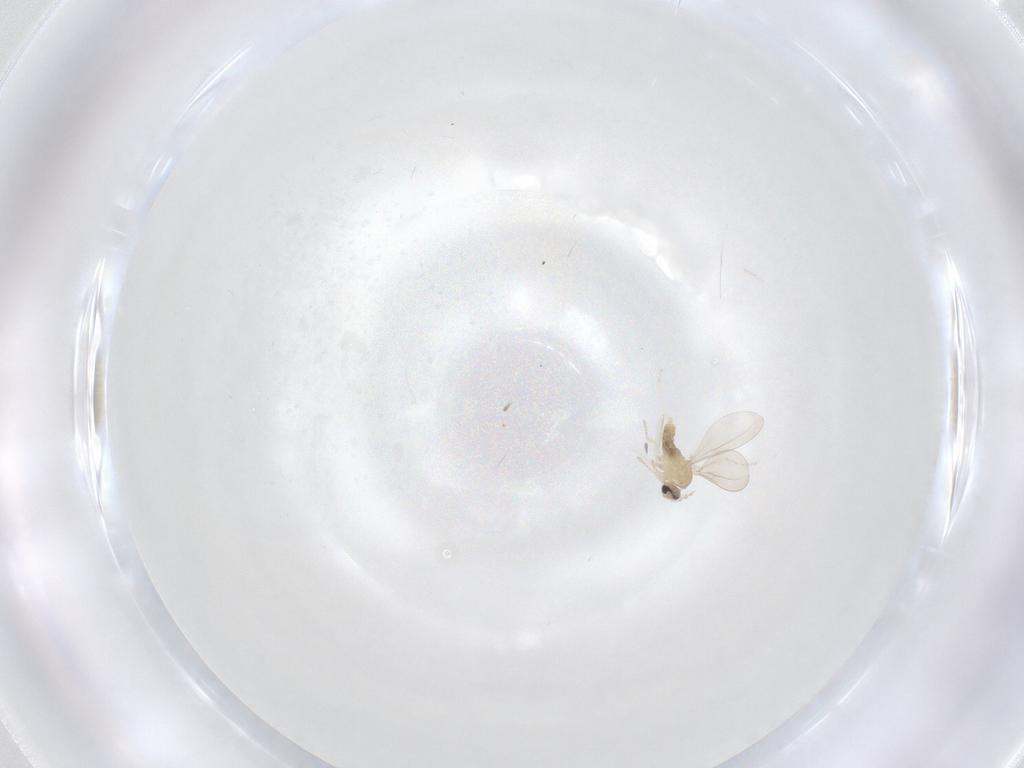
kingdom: Animalia
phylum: Arthropoda
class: Insecta
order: Diptera
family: Cecidomyiidae
